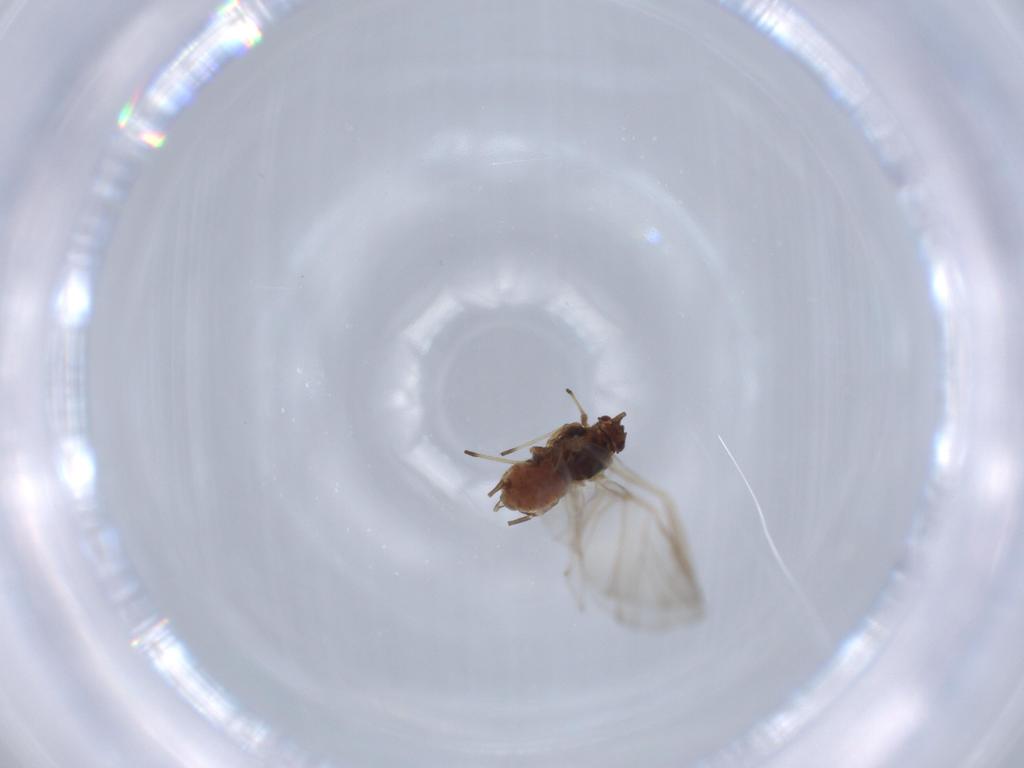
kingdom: Animalia
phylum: Arthropoda
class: Insecta
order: Hemiptera
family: Aphididae
